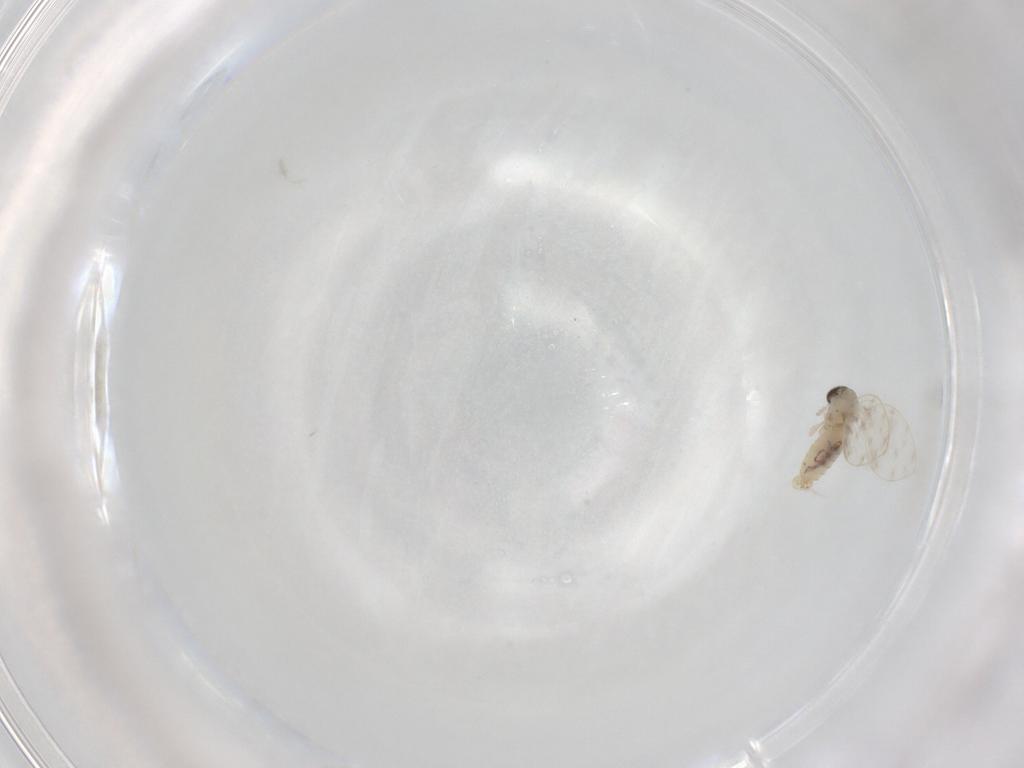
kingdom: Animalia
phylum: Arthropoda
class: Insecta
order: Diptera
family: Psychodidae
